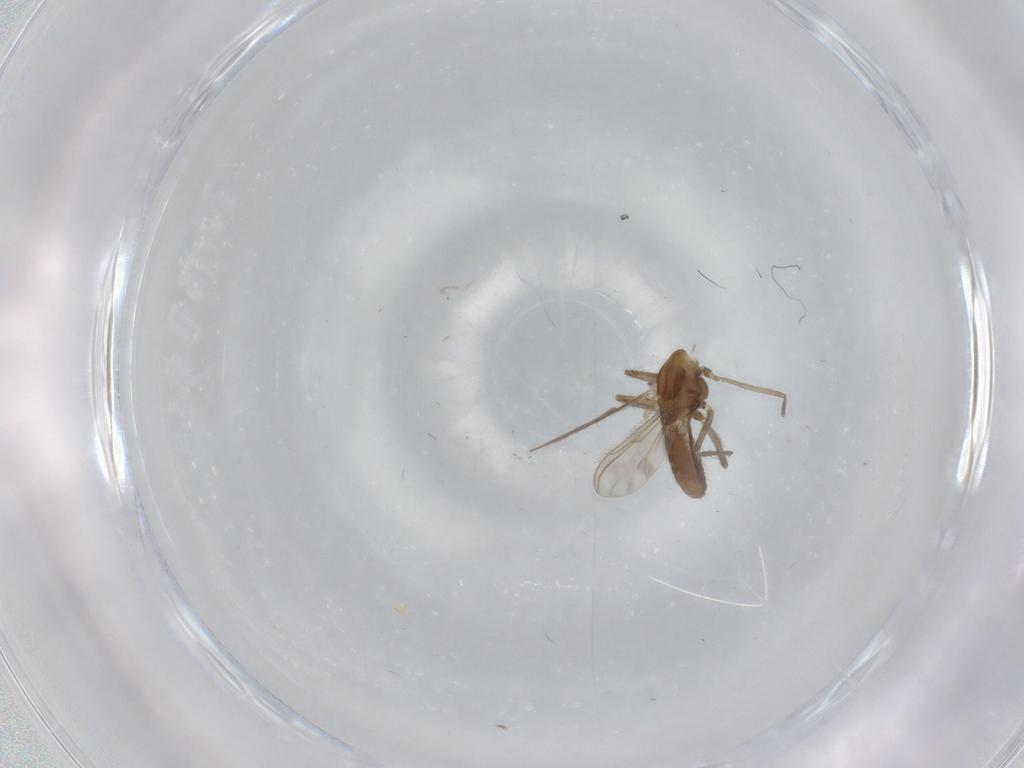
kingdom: Animalia
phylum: Arthropoda
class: Insecta
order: Diptera
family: Chironomidae
